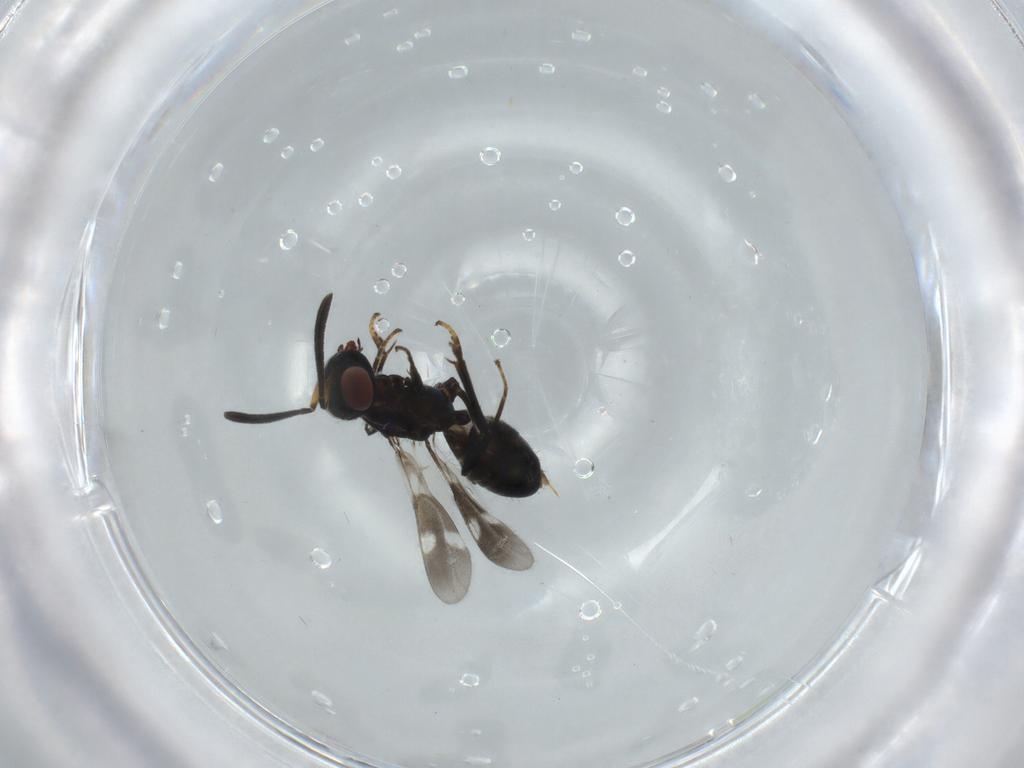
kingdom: Animalia
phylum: Arthropoda
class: Insecta
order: Hymenoptera
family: Eupelmidae
